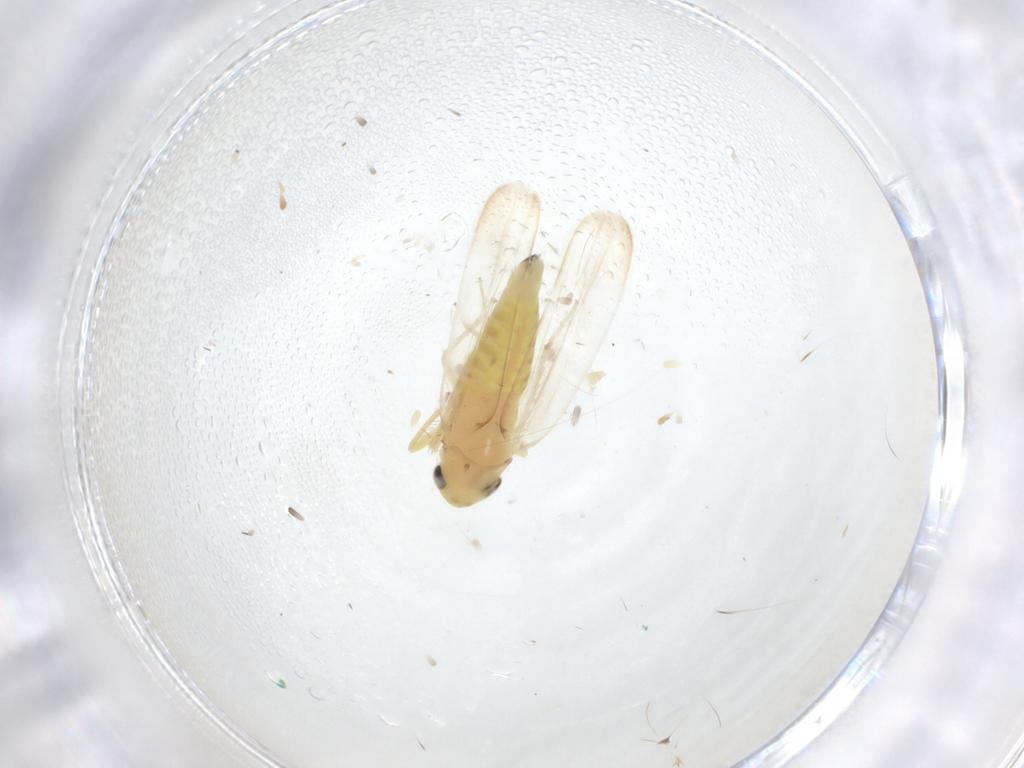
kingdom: Animalia
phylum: Arthropoda
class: Insecta
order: Hemiptera
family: Cicadellidae
